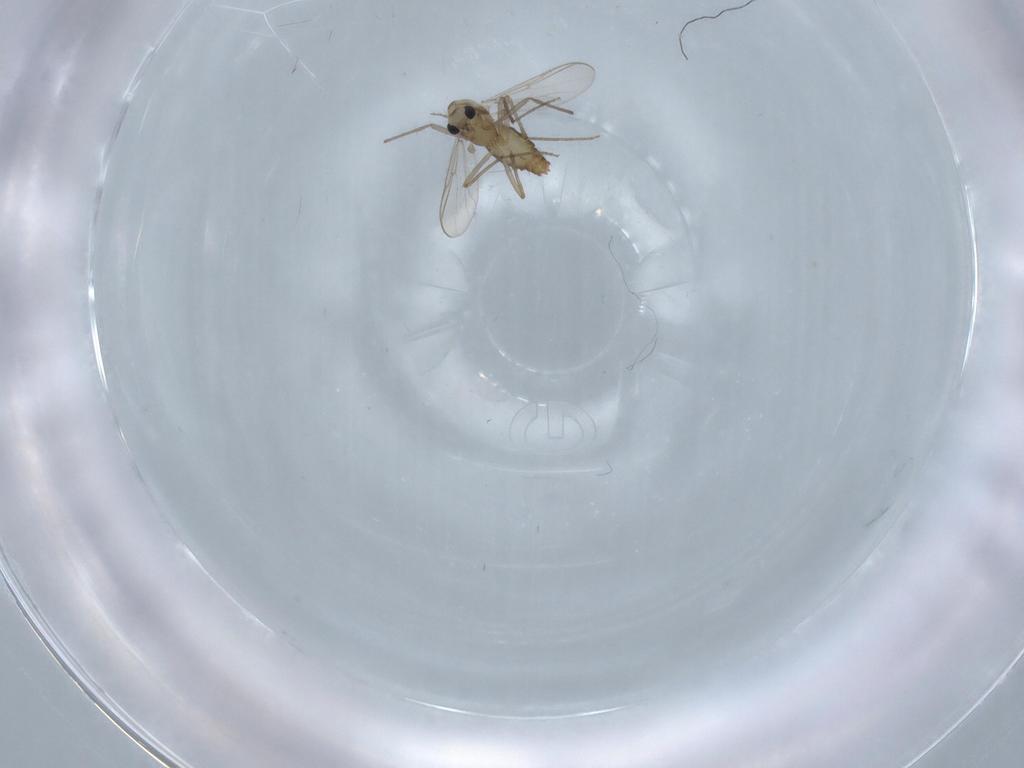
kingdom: Animalia
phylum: Arthropoda
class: Insecta
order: Diptera
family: Chironomidae
